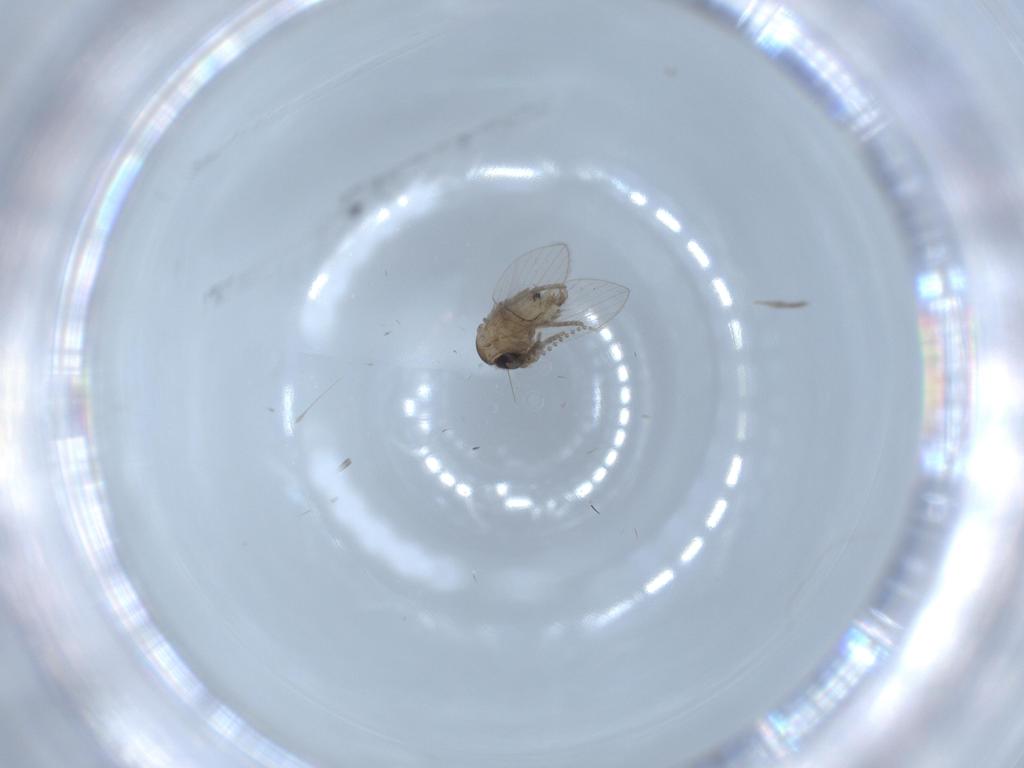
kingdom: Animalia
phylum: Arthropoda
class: Insecta
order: Diptera
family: Psychodidae
